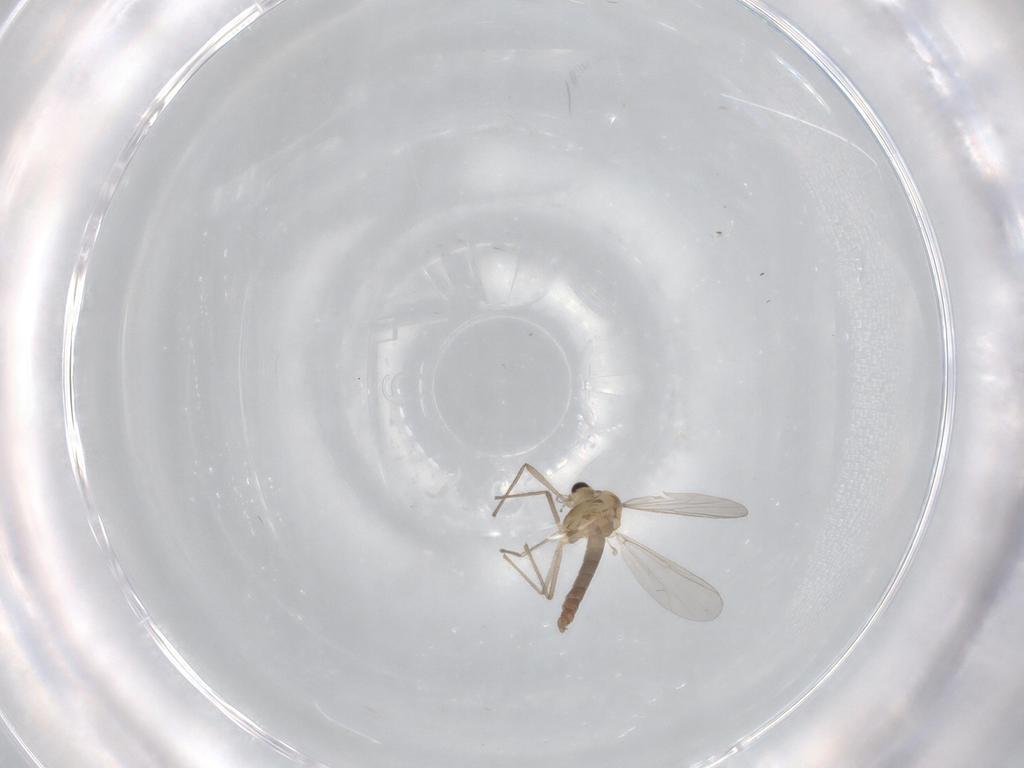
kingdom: Animalia
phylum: Arthropoda
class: Insecta
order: Diptera
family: Chironomidae
